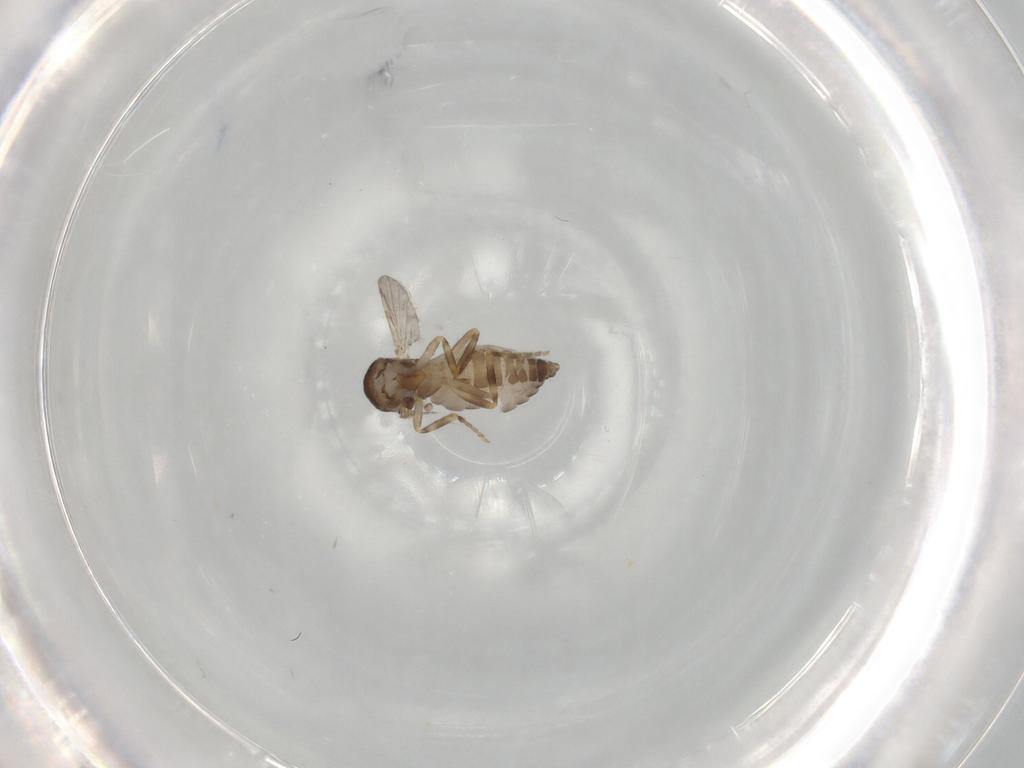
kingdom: Animalia
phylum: Arthropoda
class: Insecta
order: Diptera
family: Ceratopogonidae
